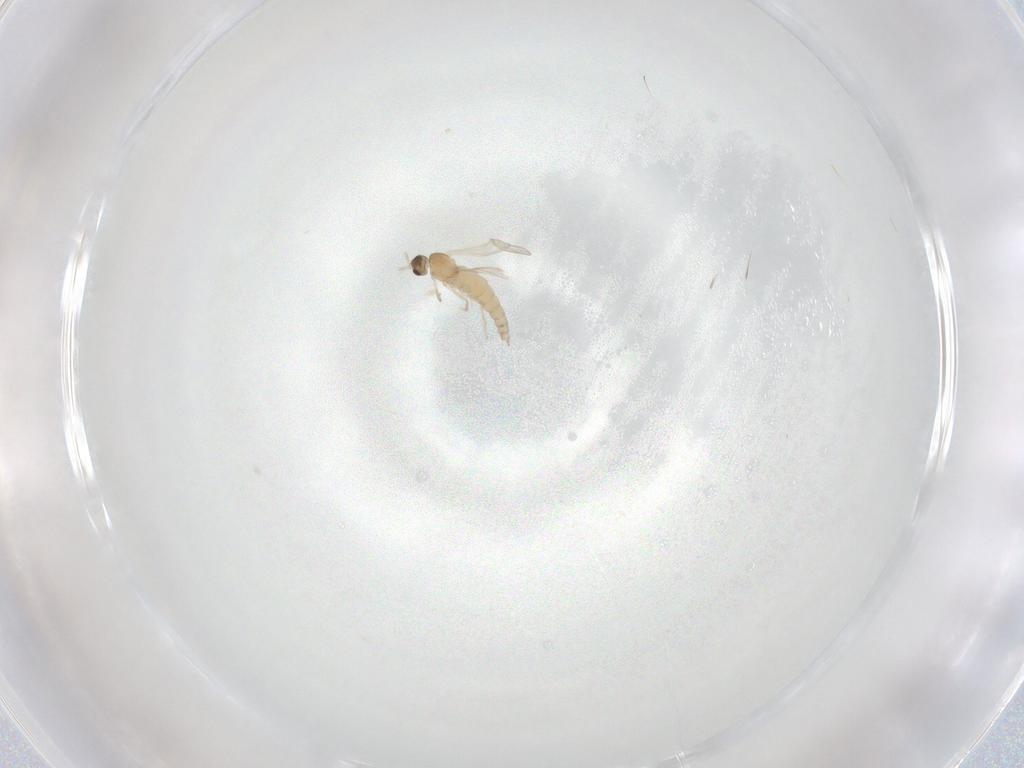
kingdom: Animalia
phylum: Arthropoda
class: Insecta
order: Diptera
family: Cecidomyiidae
